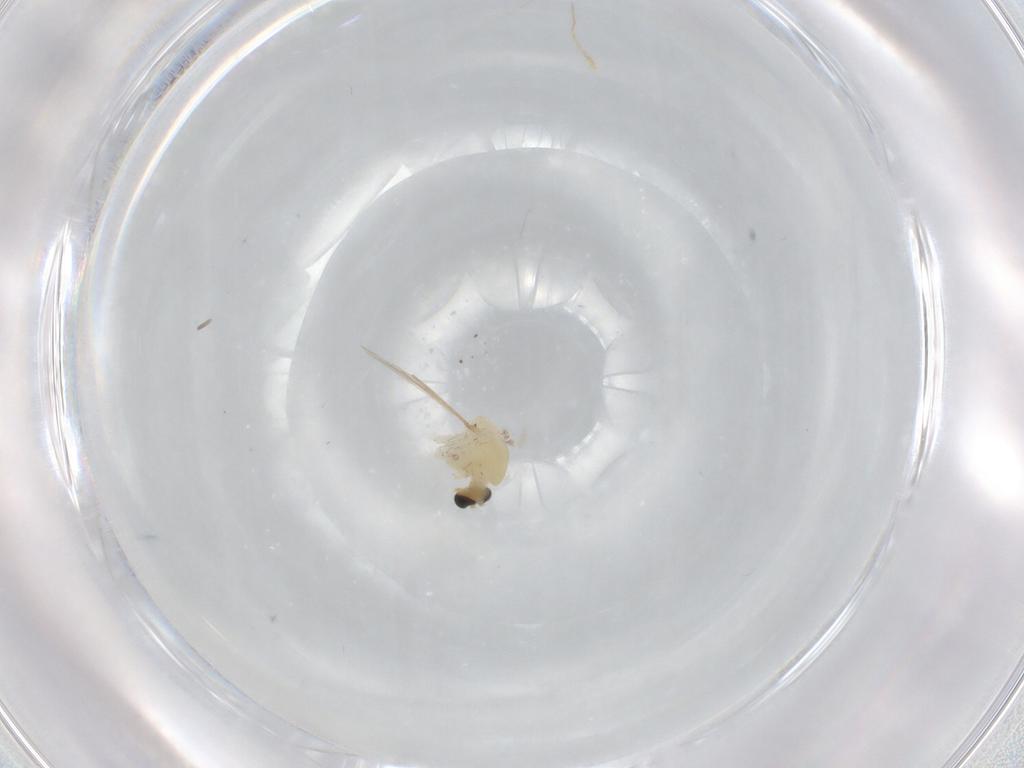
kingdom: Animalia
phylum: Arthropoda
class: Insecta
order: Diptera
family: Chironomidae
